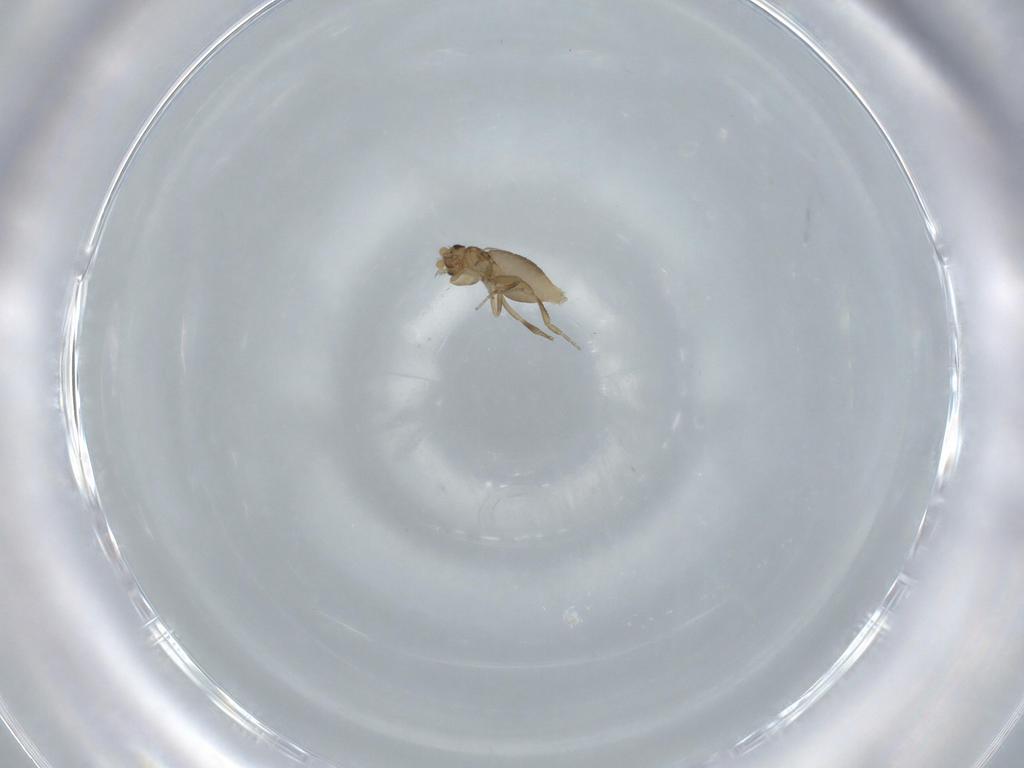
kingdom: Animalia
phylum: Arthropoda
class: Insecta
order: Diptera
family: Phoridae
